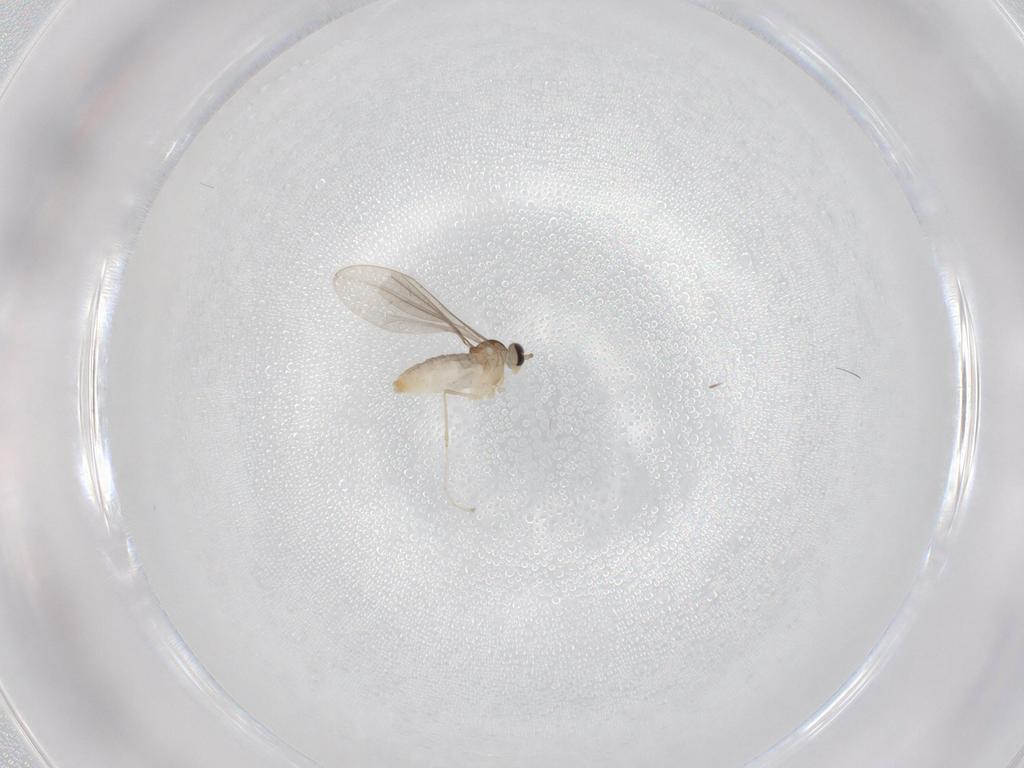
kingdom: Animalia
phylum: Arthropoda
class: Insecta
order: Diptera
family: Cecidomyiidae
